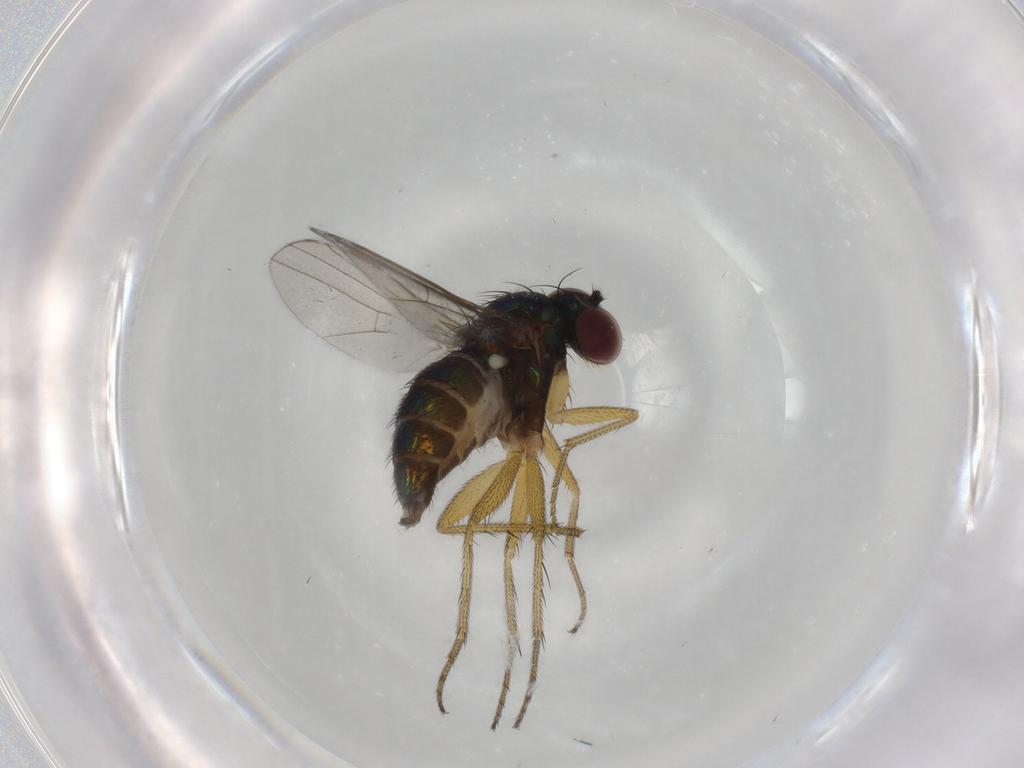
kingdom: Animalia
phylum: Arthropoda
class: Insecta
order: Diptera
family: Dolichopodidae
